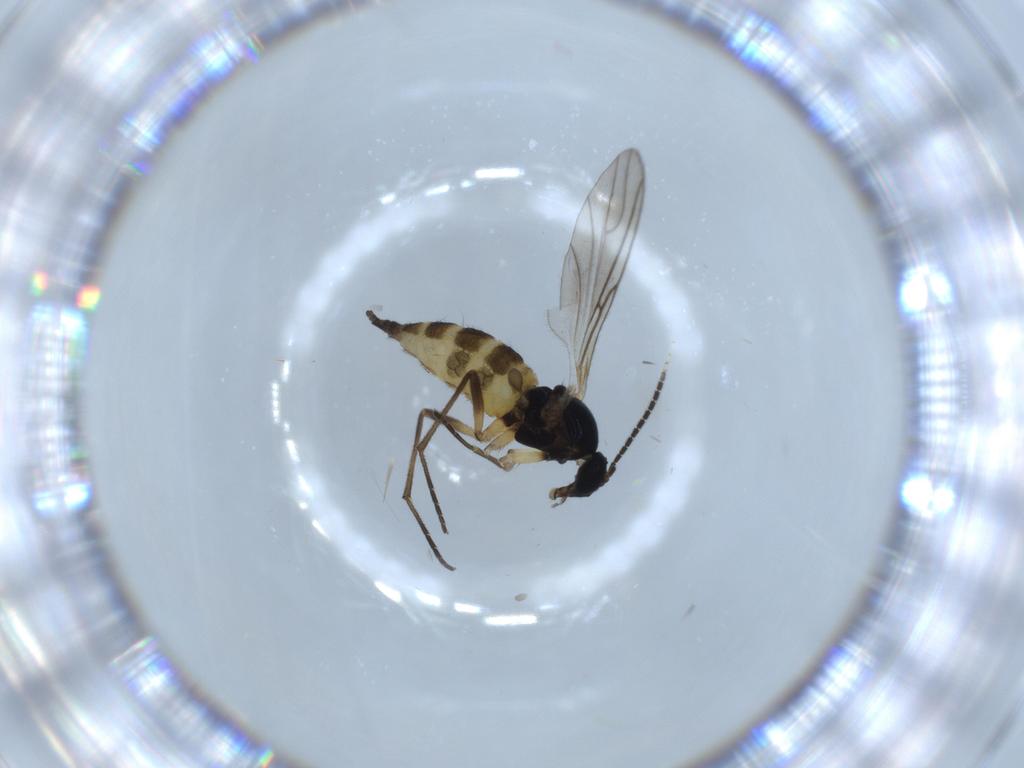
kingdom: Animalia
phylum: Arthropoda
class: Insecta
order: Diptera
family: Sciaridae
